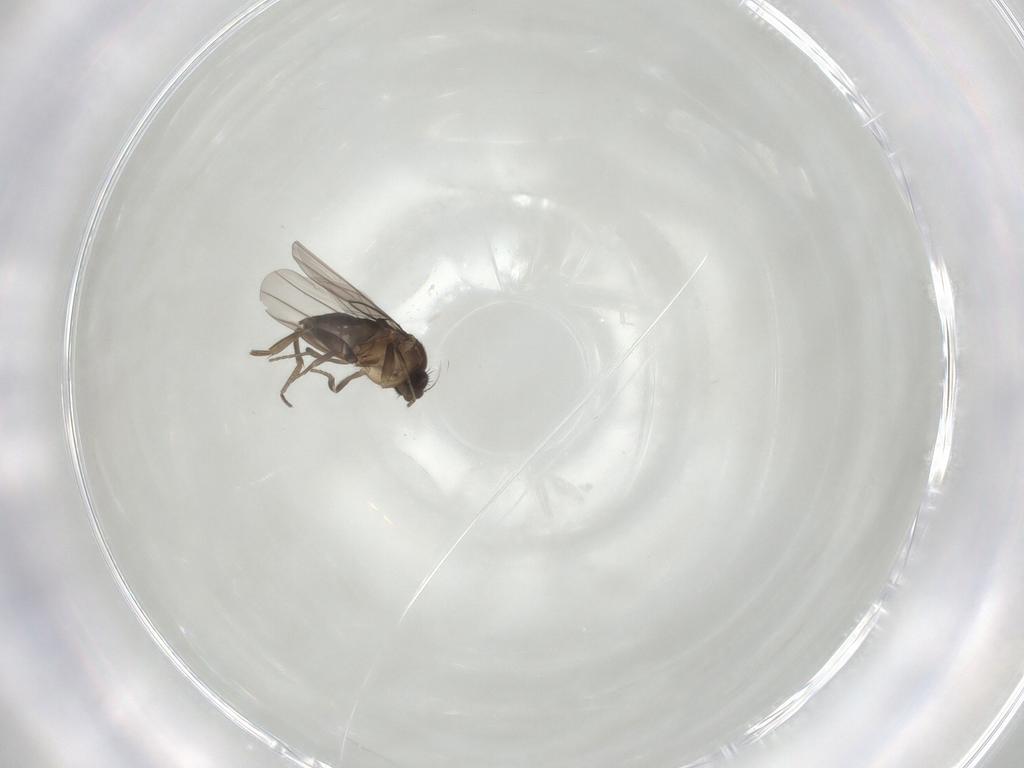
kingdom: Animalia
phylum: Arthropoda
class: Insecta
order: Diptera
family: Phoridae
